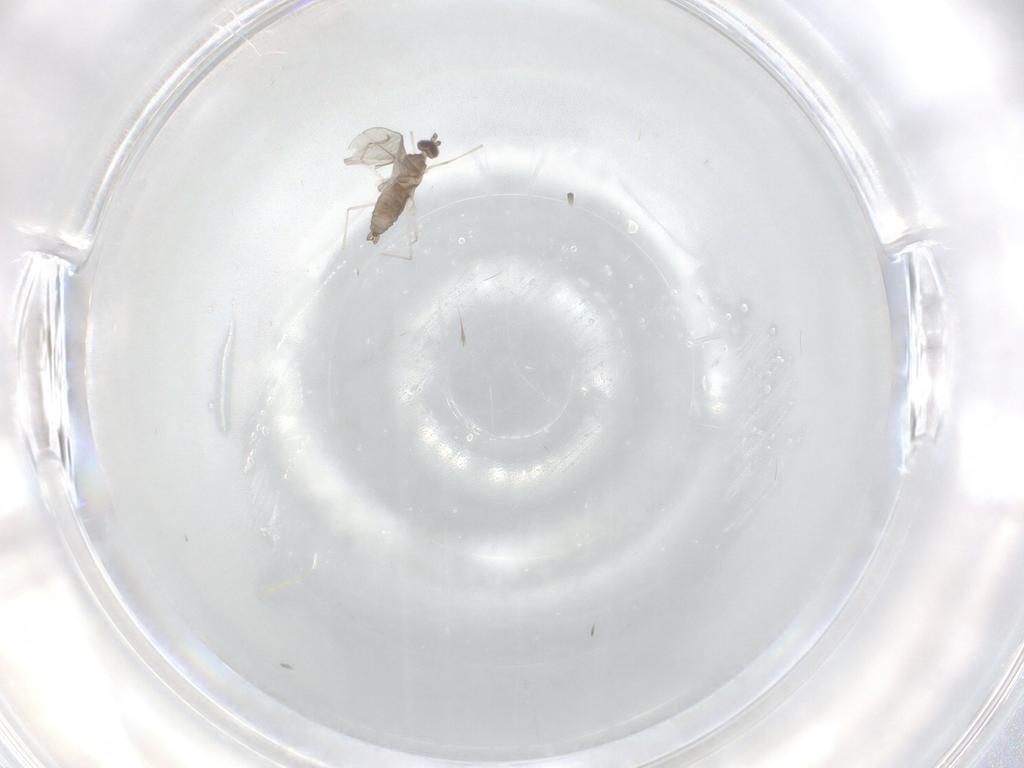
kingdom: Animalia
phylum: Arthropoda
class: Insecta
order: Diptera
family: Cecidomyiidae
